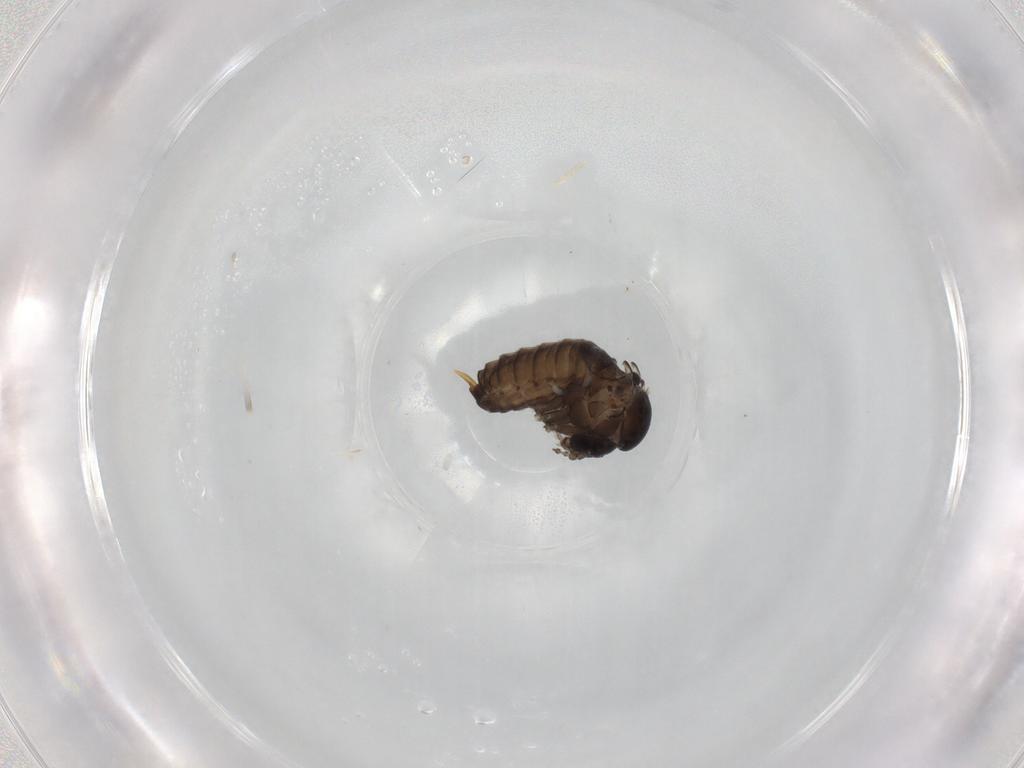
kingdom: Animalia
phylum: Arthropoda
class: Insecta
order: Diptera
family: Psychodidae
